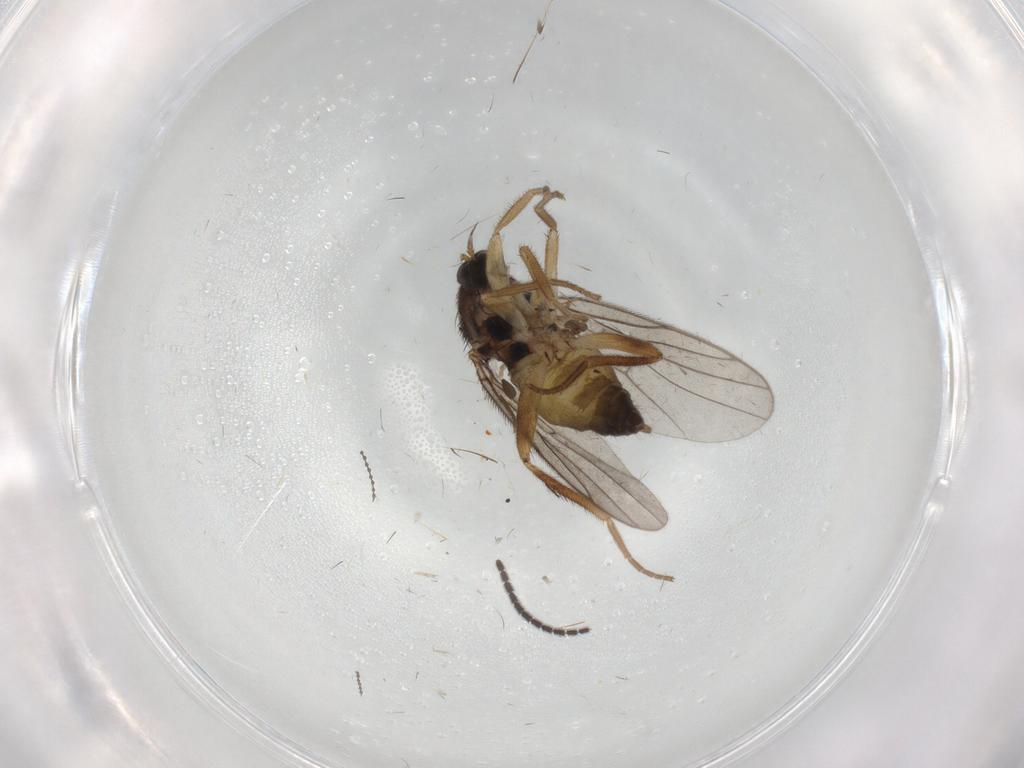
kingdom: Animalia
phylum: Arthropoda
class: Insecta
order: Diptera
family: Hybotidae
